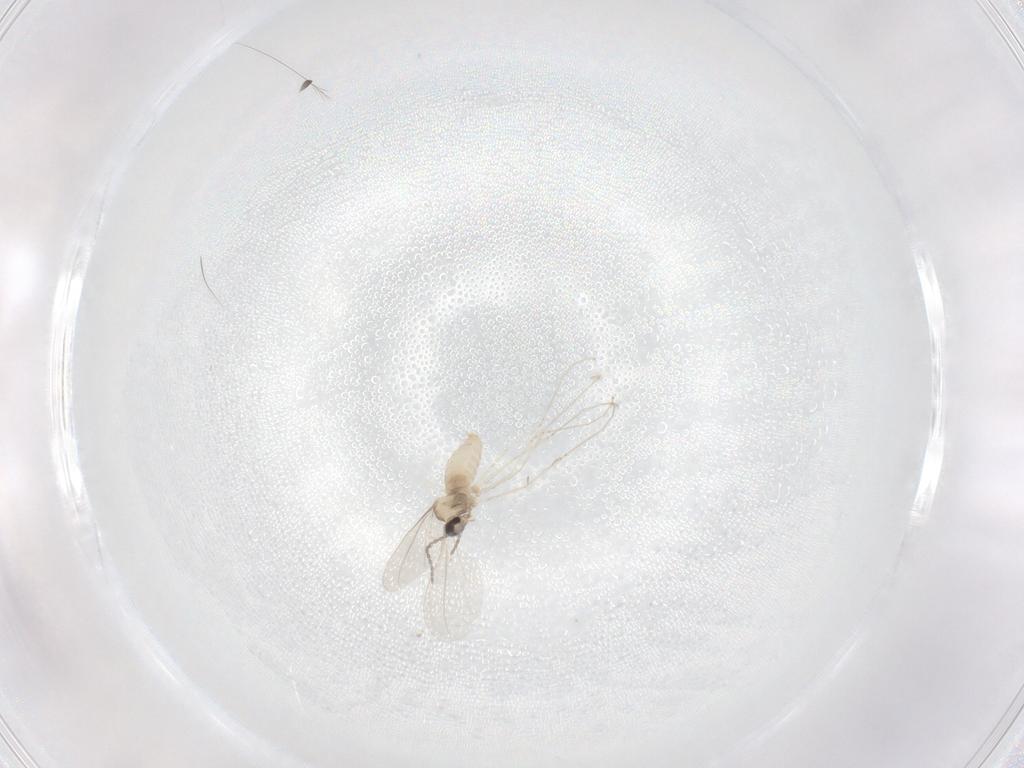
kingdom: Animalia
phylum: Arthropoda
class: Insecta
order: Diptera
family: Cecidomyiidae
